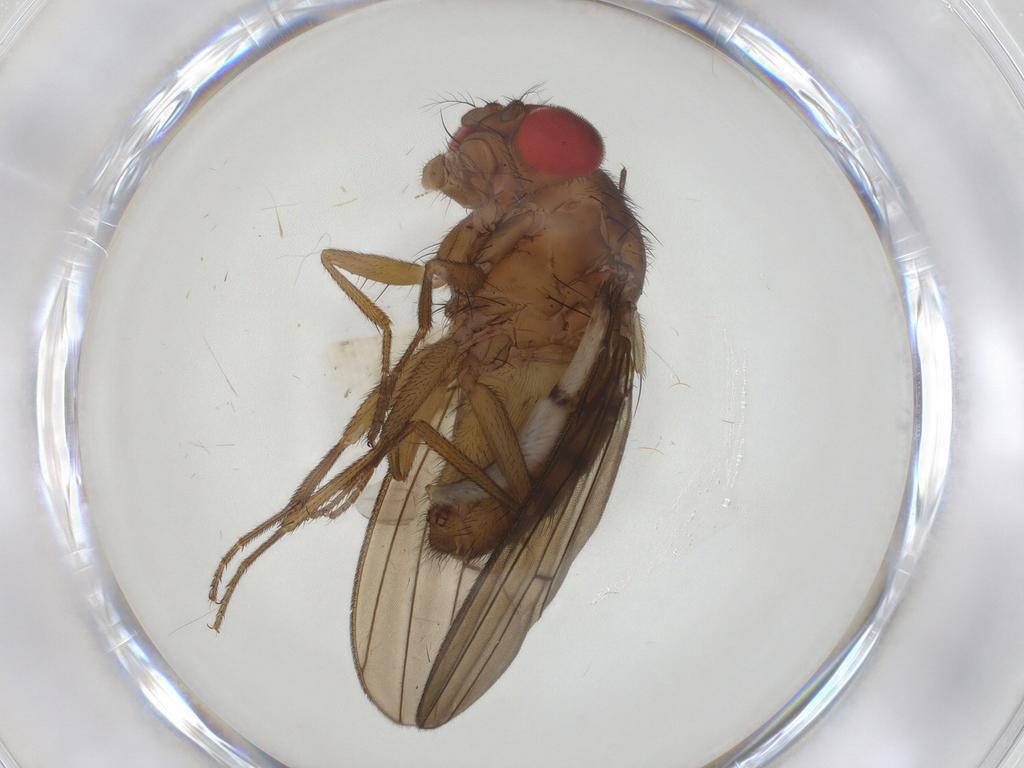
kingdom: Animalia
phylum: Arthropoda
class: Insecta
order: Diptera
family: Drosophilidae
